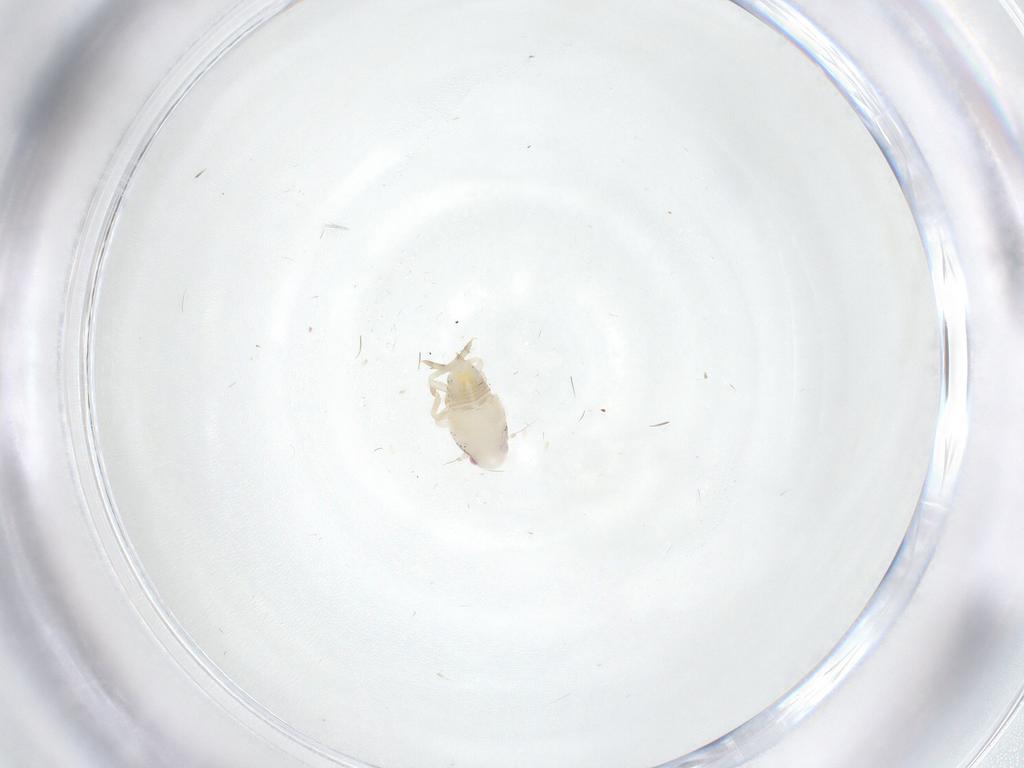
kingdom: Animalia
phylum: Arthropoda
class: Insecta
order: Hemiptera
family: Flatidae
